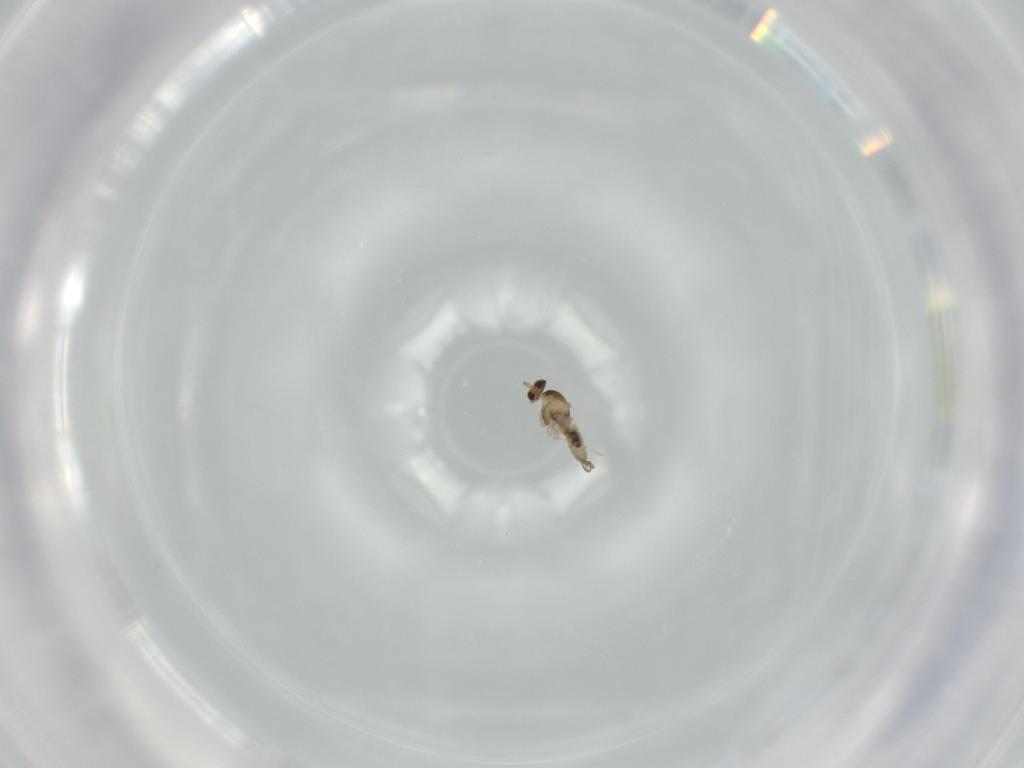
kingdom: Animalia
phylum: Arthropoda
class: Insecta
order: Diptera
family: Cecidomyiidae
